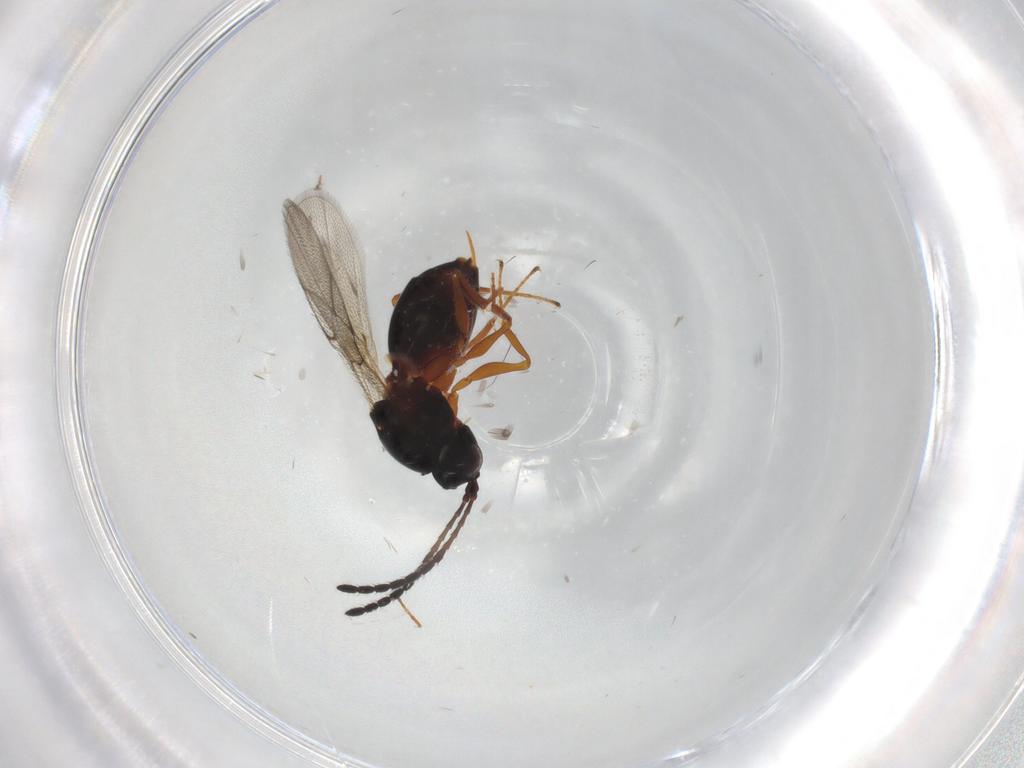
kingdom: Animalia
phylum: Arthropoda
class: Insecta
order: Hymenoptera
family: Figitidae
